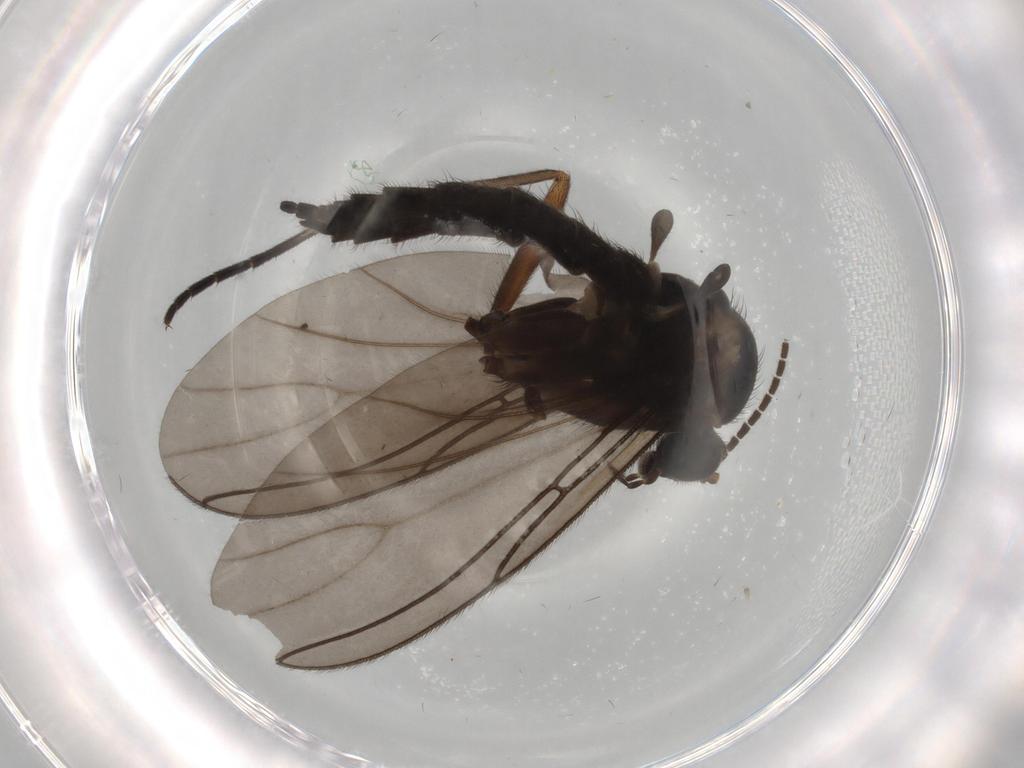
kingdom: Animalia
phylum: Arthropoda
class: Insecta
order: Diptera
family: Sciaridae
